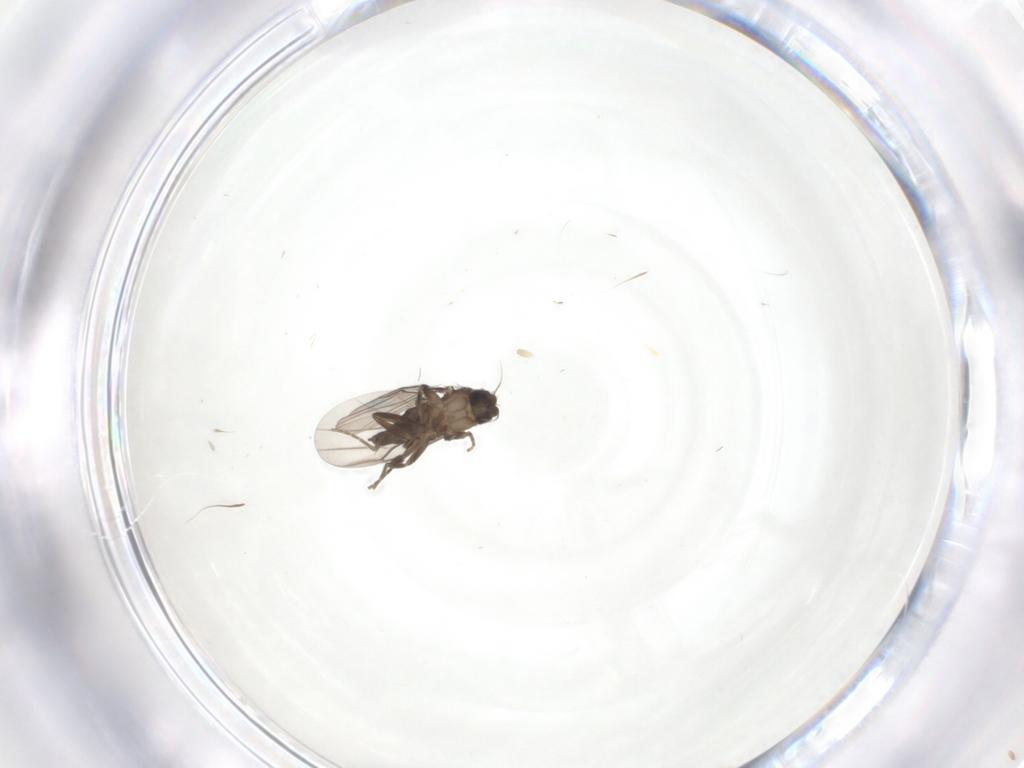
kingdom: Animalia
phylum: Arthropoda
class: Insecta
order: Diptera
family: Phoridae
